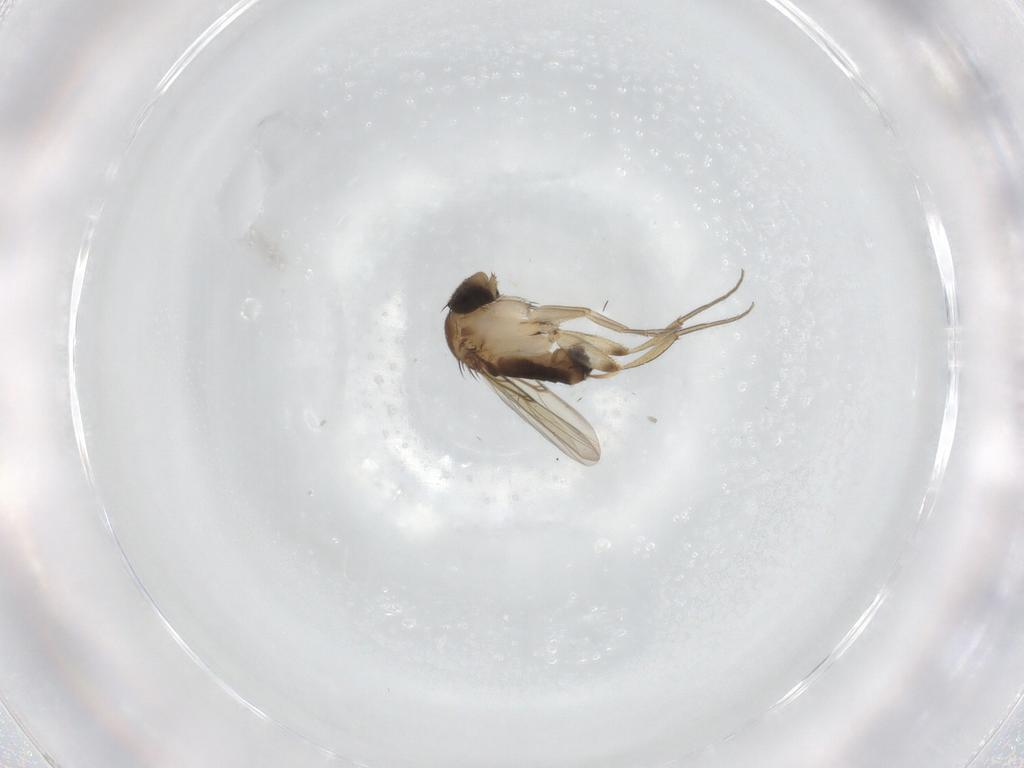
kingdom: Animalia
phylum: Arthropoda
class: Insecta
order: Diptera
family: Phoridae
